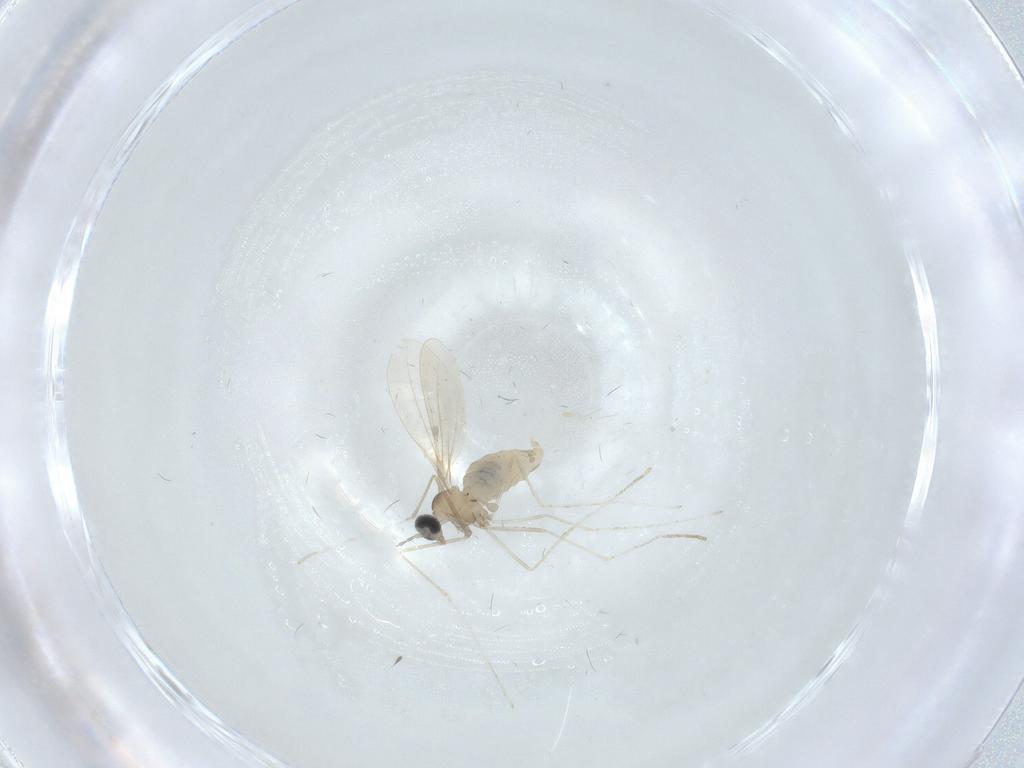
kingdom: Animalia
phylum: Arthropoda
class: Insecta
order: Diptera
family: Cecidomyiidae
